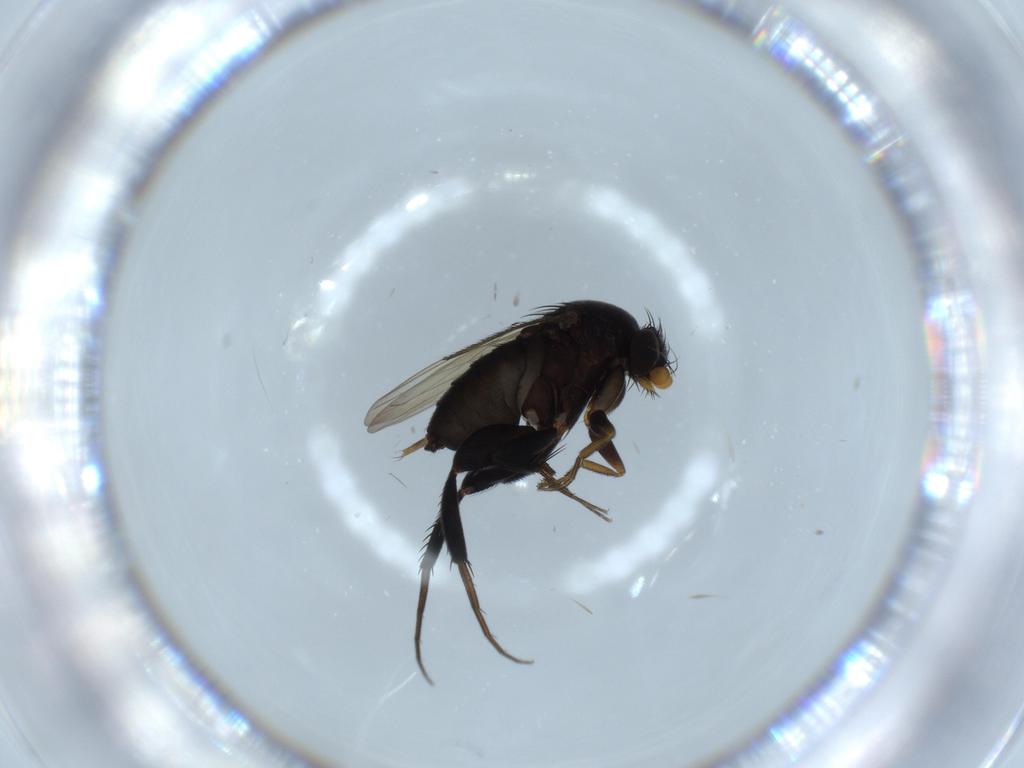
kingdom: Animalia
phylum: Arthropoda
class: Insecta
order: Diptera
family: Phoridae
